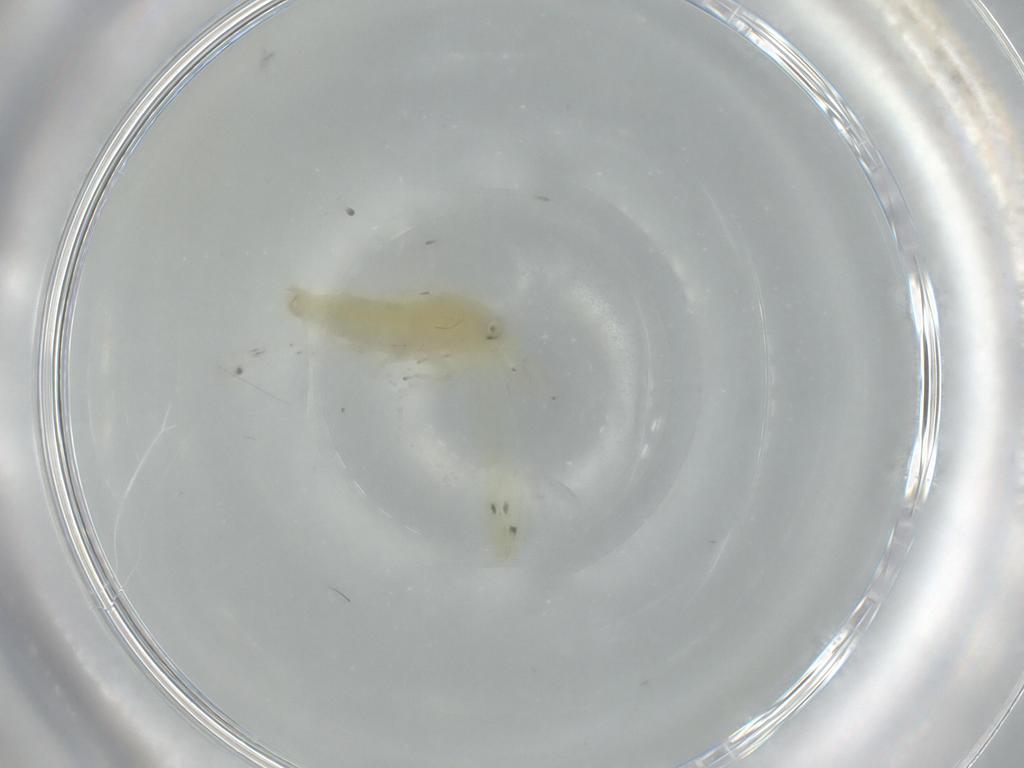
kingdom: Animalia
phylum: Arthropoda
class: Insecta
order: Hemiptera
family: Cicadellidae
